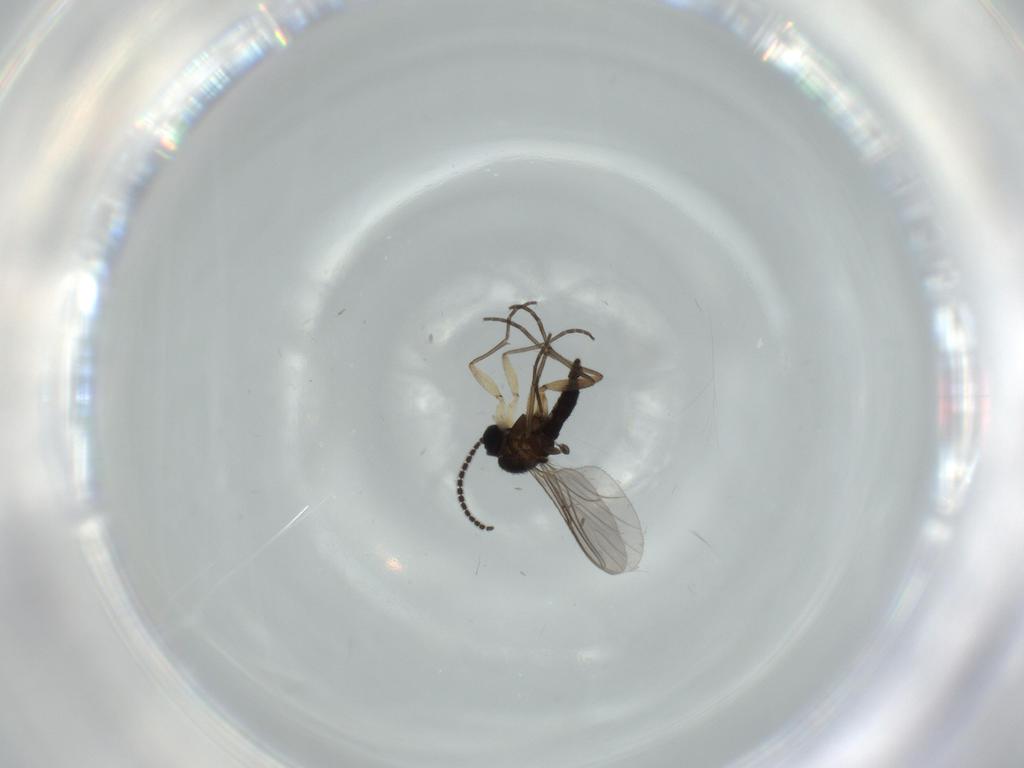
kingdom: Animalia
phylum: Arthropoda
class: Insecta
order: Diptera
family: Sciaridae
